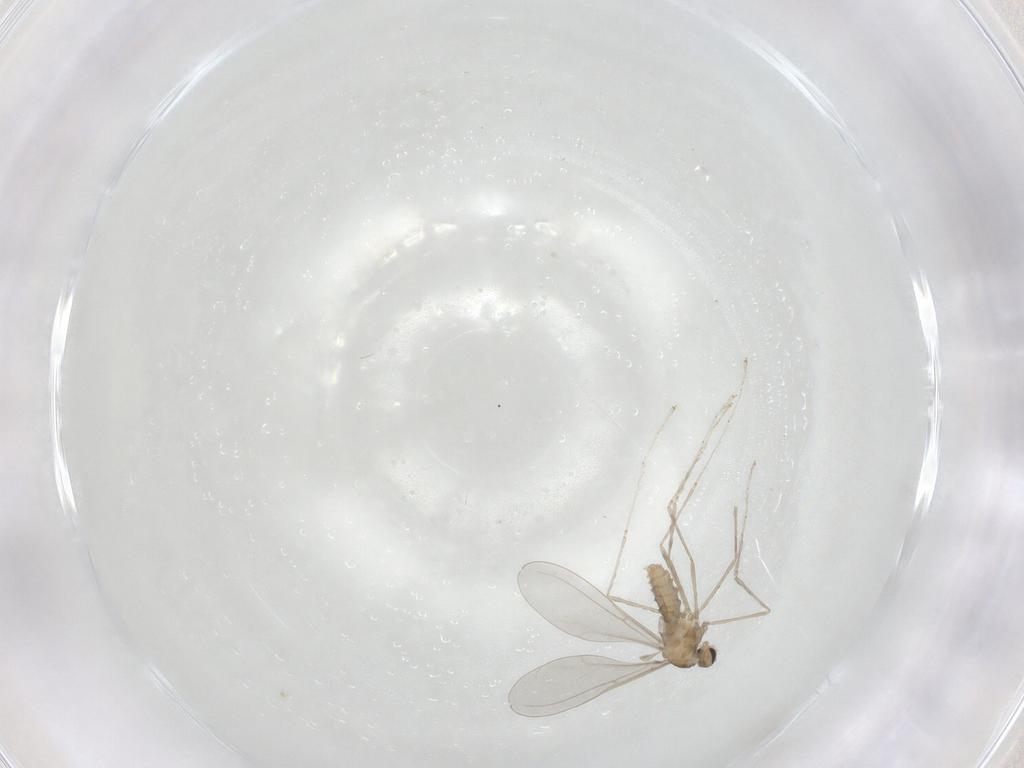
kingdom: Animalia
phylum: Arthropoda
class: Insecta
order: Diptera
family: Cecidomyiidae
